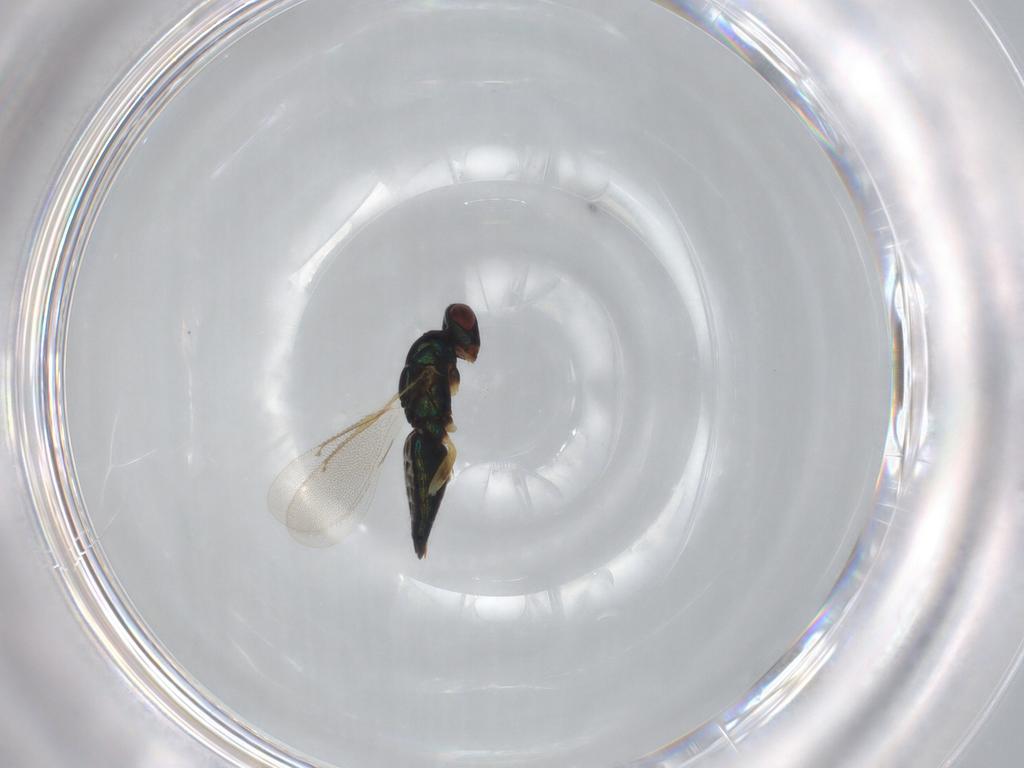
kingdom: Animalia
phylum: Arthropoda
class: Insecta
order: Hymenoptera
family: Eulophidae
